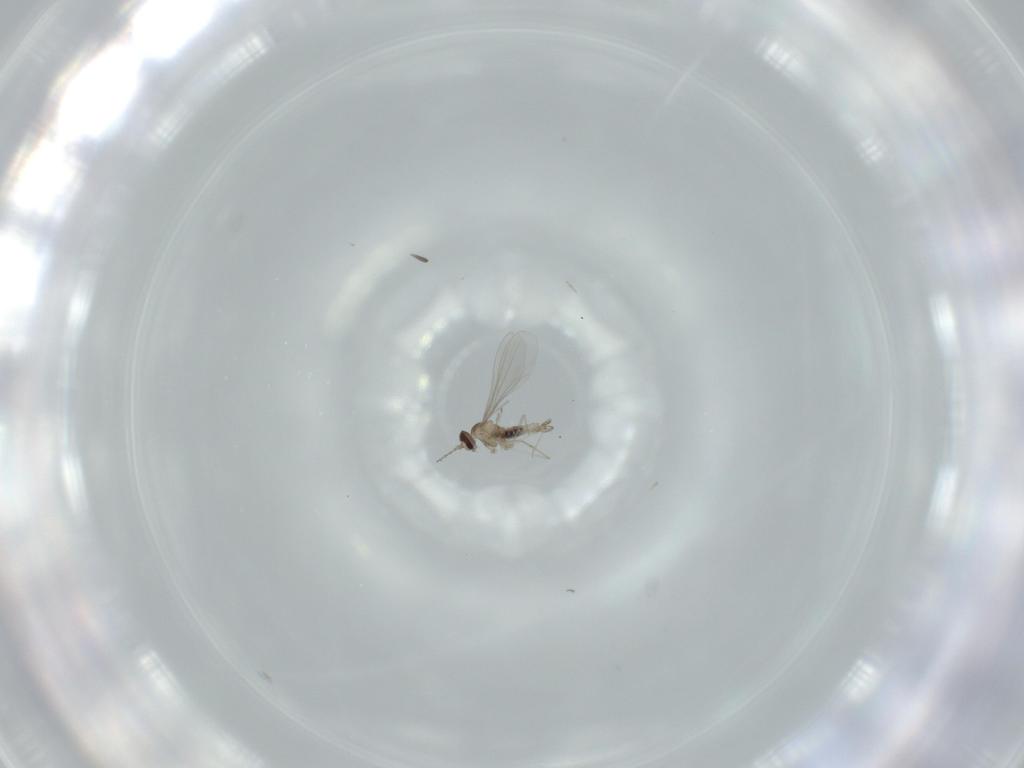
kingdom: Animalia
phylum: Arthropoda
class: Insecta
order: Diptera
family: Cecidomyiidae
